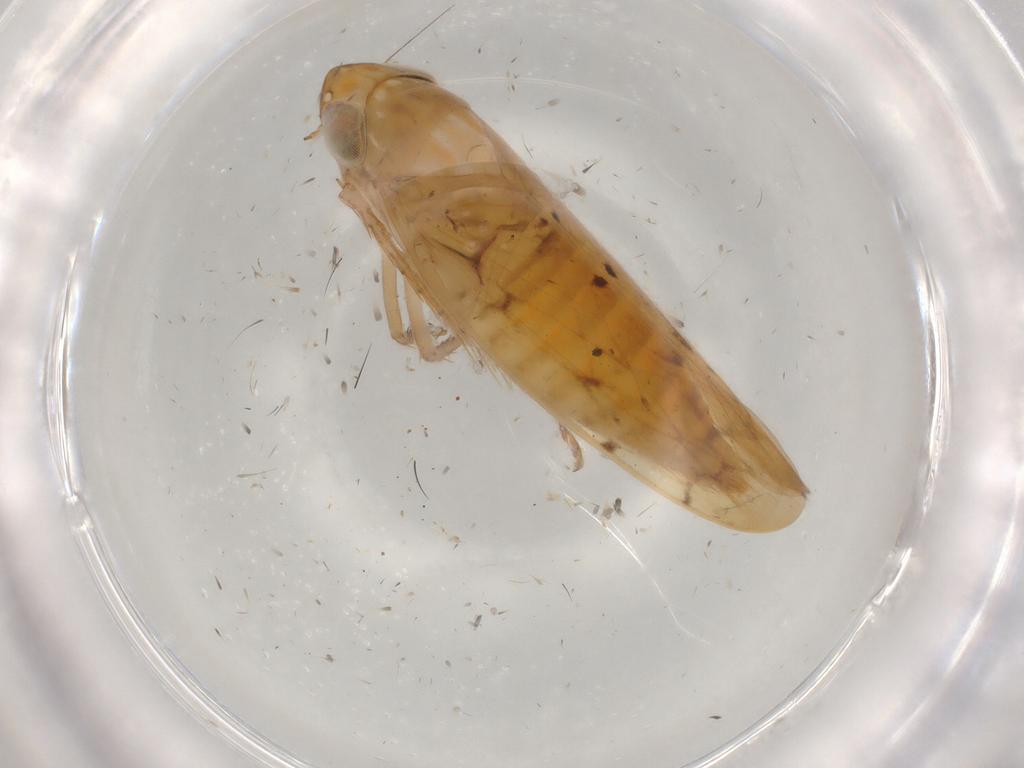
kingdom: Animalia
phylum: Arthropoda
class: Insecta
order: Hemiptera
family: Cicadellidae
